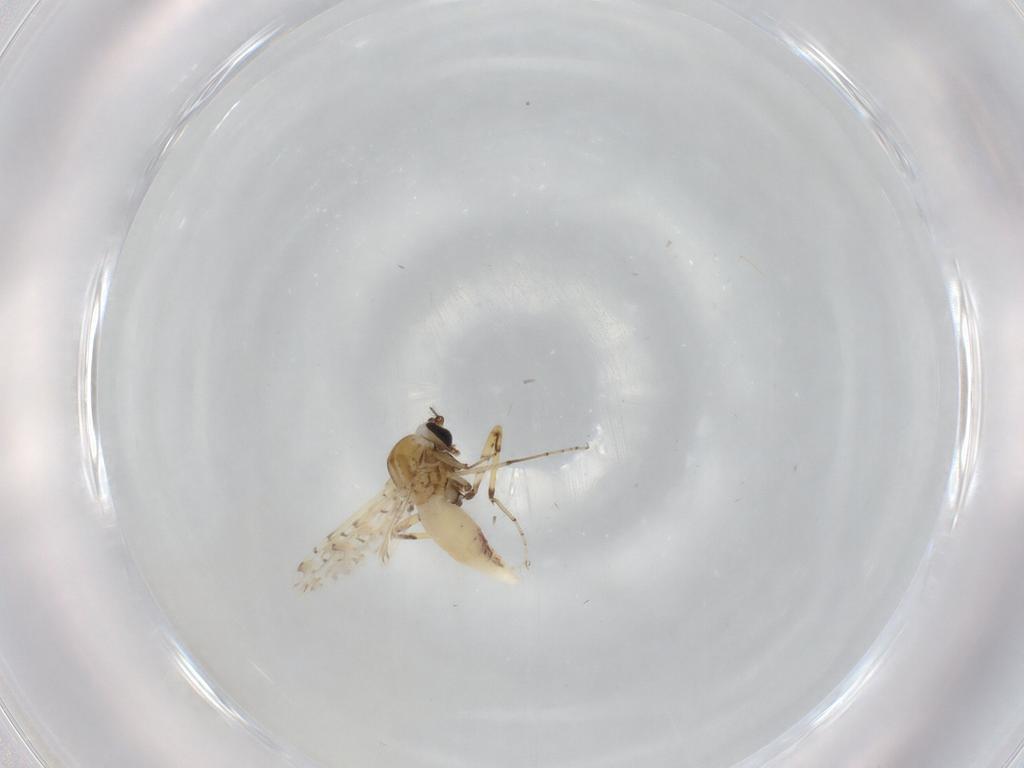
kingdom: Animalia
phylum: Arthropoda
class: Insecta
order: Diptera
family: Ceratopogonidae
